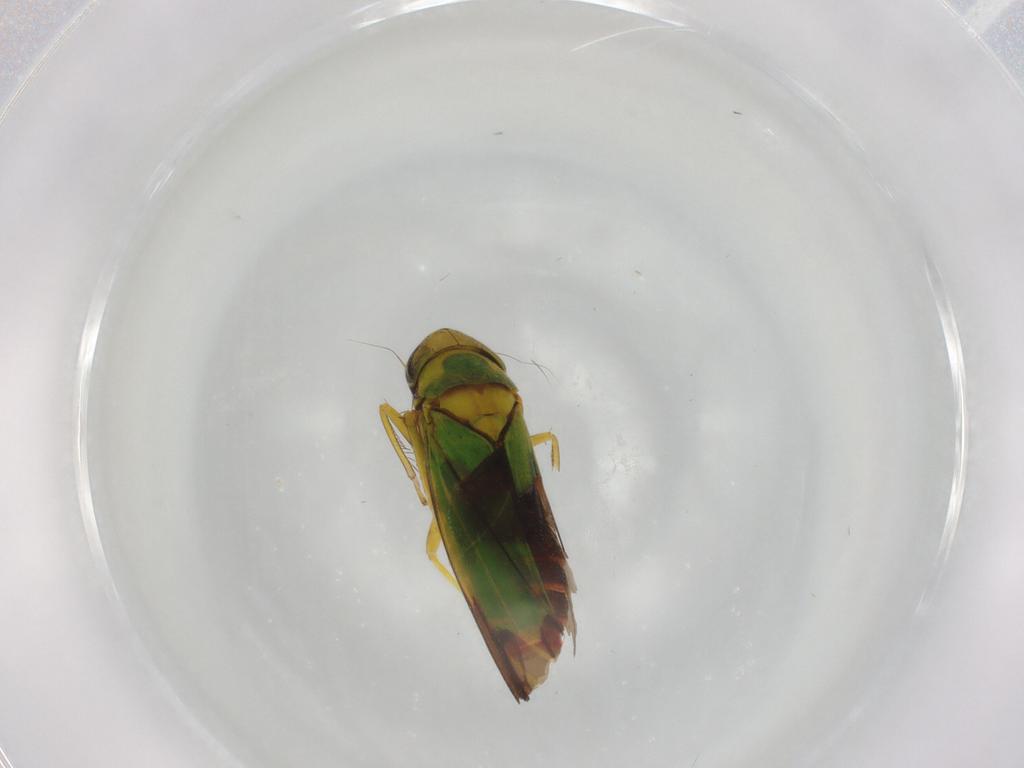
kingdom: Animalia
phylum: Arthropoda
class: Insecta
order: Hemiptera
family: Cicadellidae
